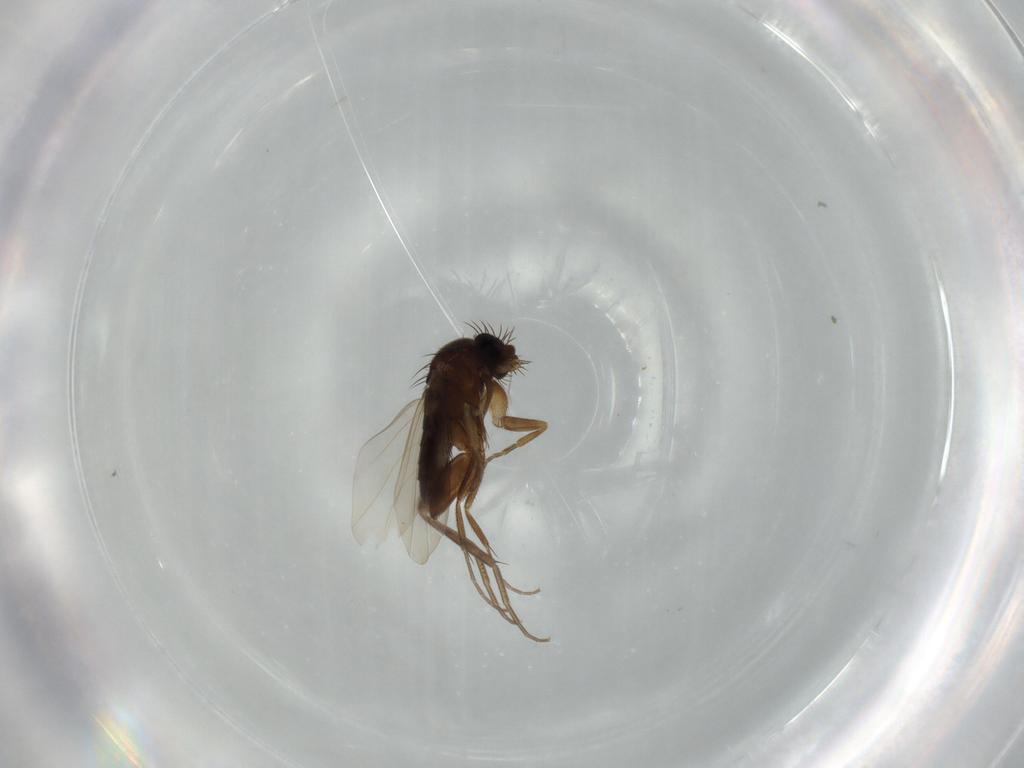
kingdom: Animalia
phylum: Arthropoda
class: Insecta
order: Diptera
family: Phoridae
